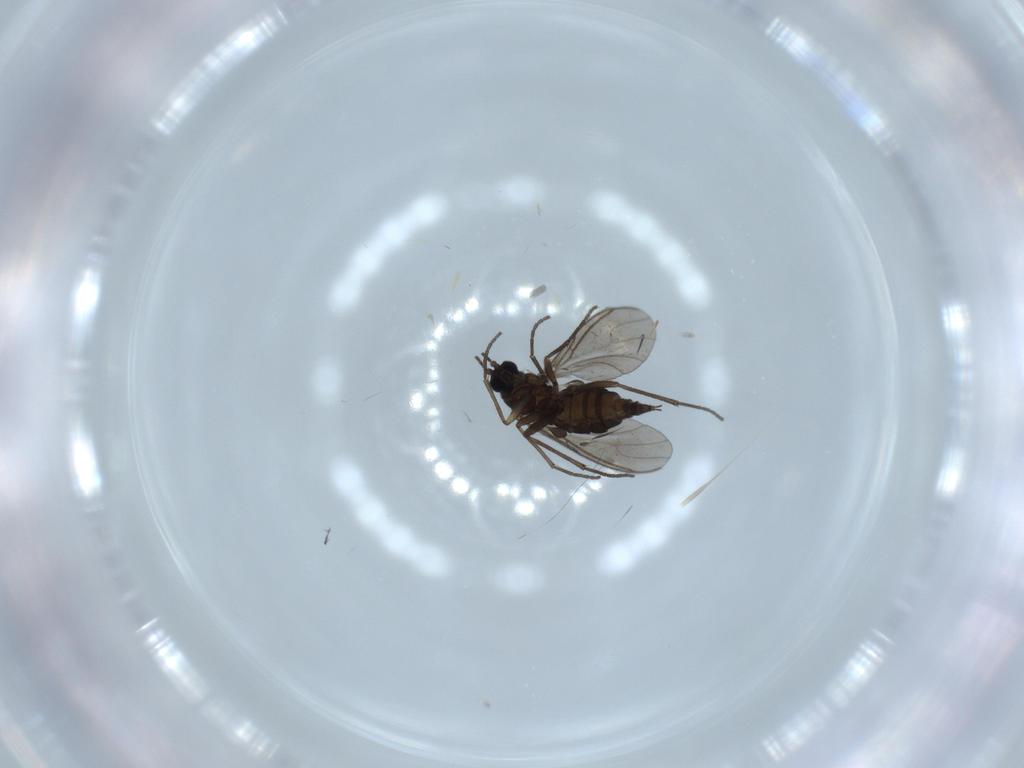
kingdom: Animalia
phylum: Arthropoda
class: Insecta
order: Diptera
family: Sciaridae
